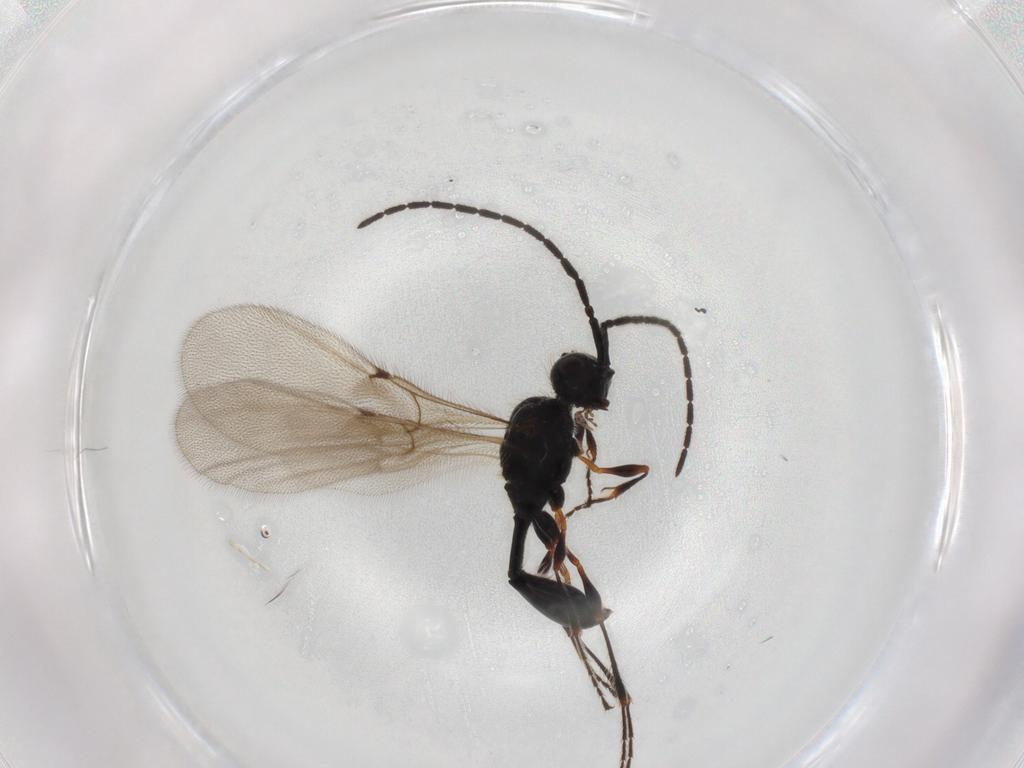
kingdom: Animalia
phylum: Arthropoda
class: Insecta
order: Hymenoptera
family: Diapriidae
